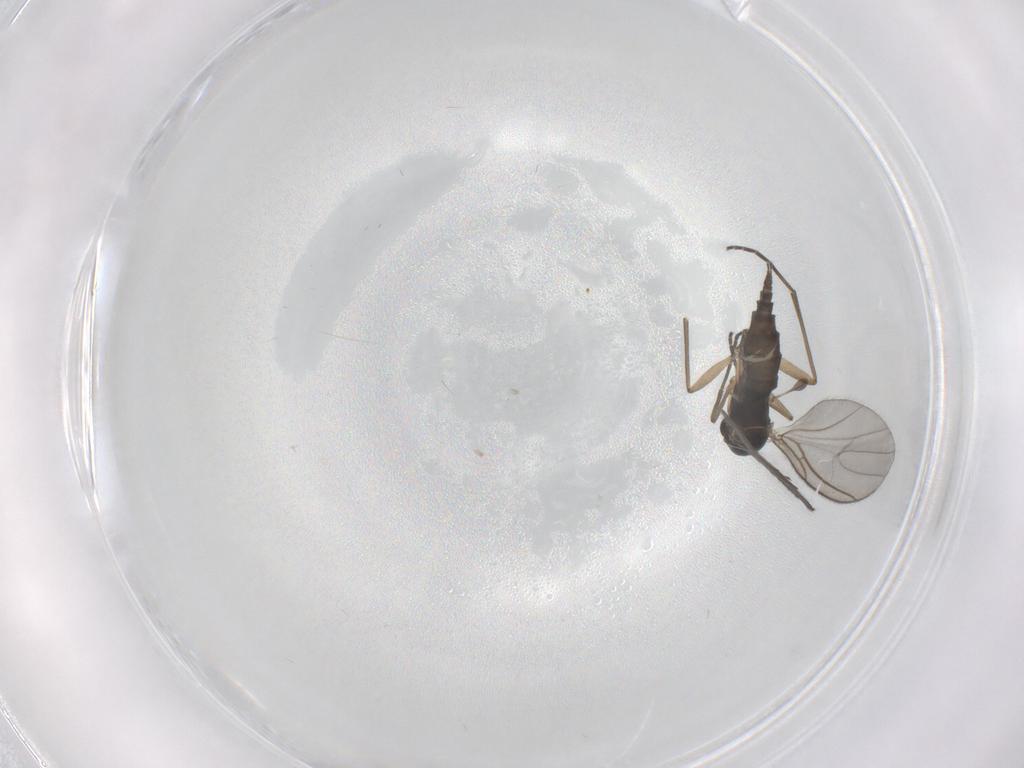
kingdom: Animalia
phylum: Arthropoda
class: Insecta
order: Diptera
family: Sciaridae
